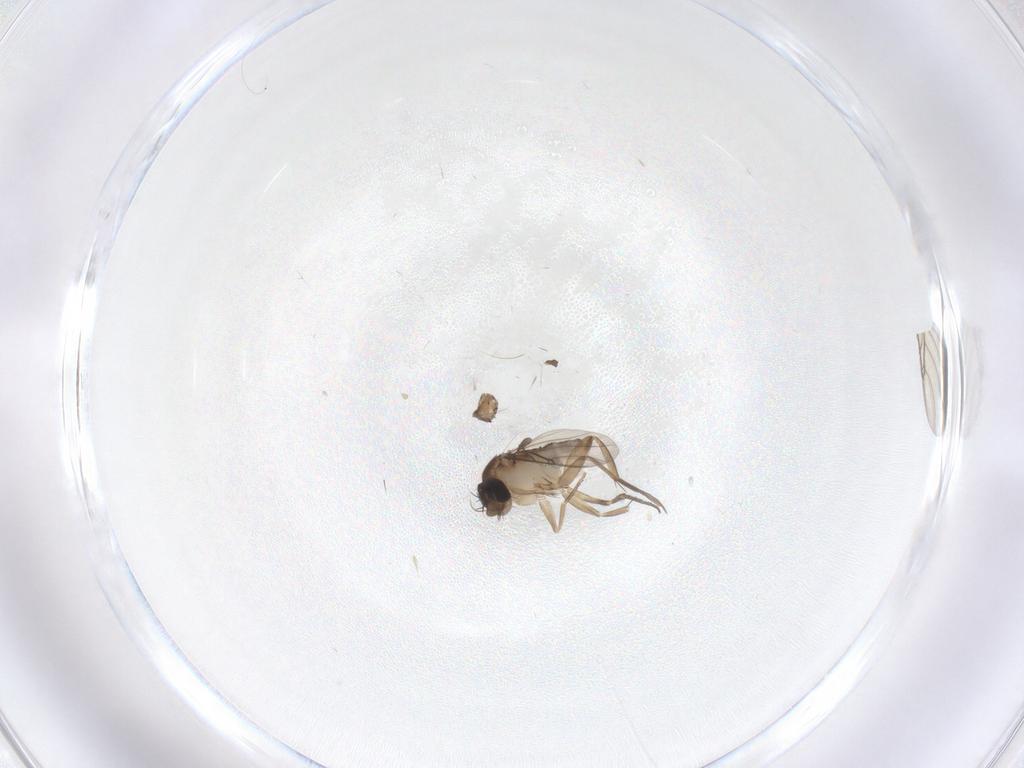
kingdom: Animalia
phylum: Arthropoda
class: Insecta
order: Diptera
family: Phoridae
